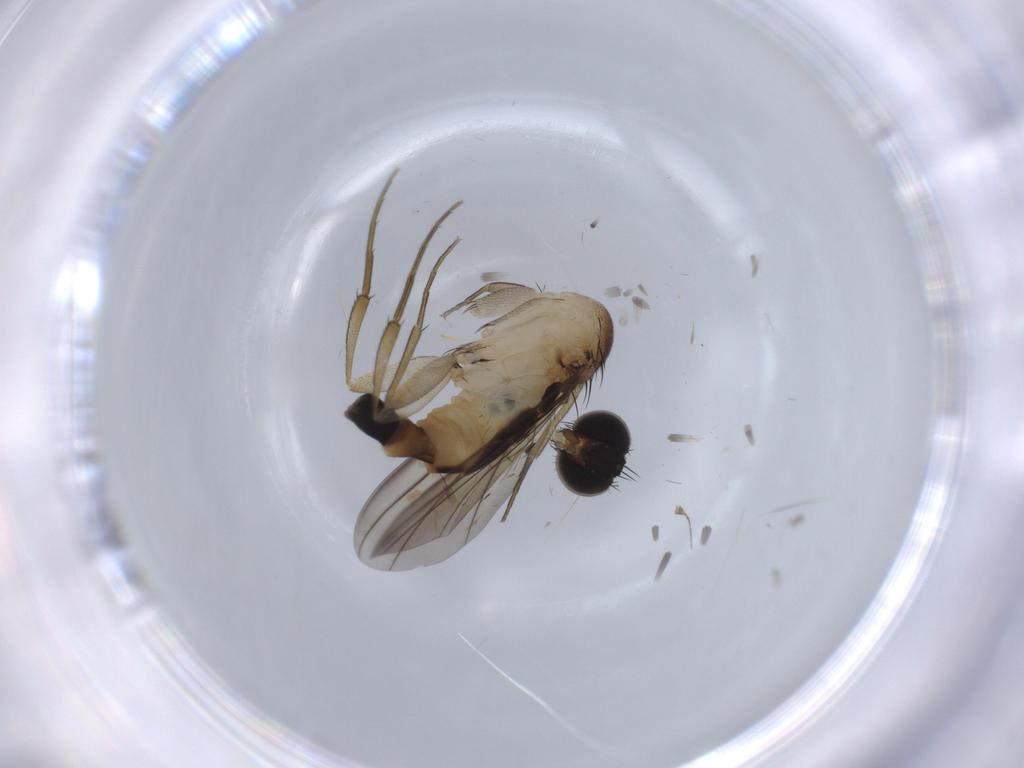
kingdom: Animalia
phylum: Arthropoda
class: Insecta
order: Diptera
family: Phoridae
